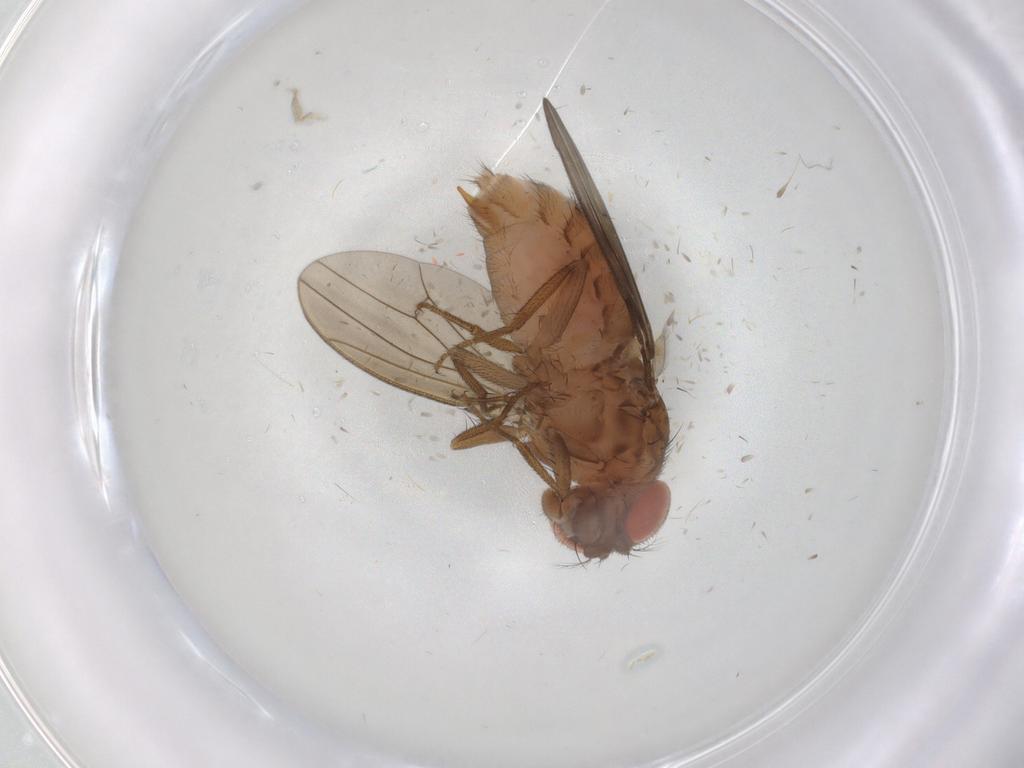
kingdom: Animalia
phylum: Arthropoda
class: Insecta
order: Diptera
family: Drosophilidae
